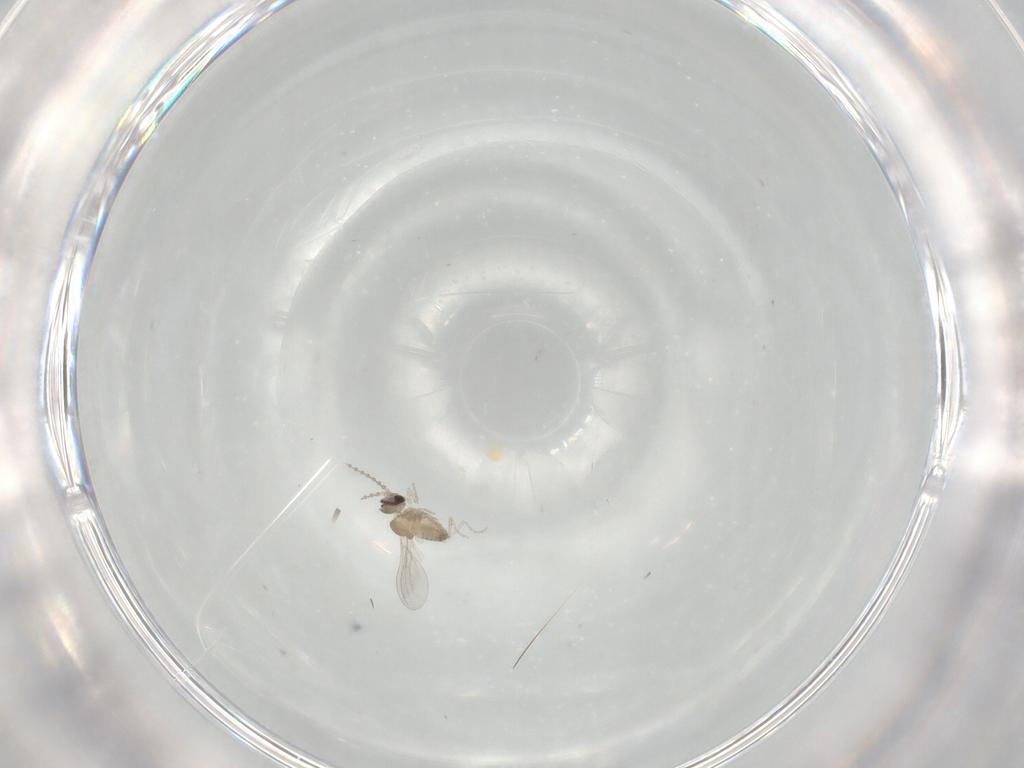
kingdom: Animalia
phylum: Arthropoda
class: Insecta
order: Diptera
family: Cecidomyiidae
